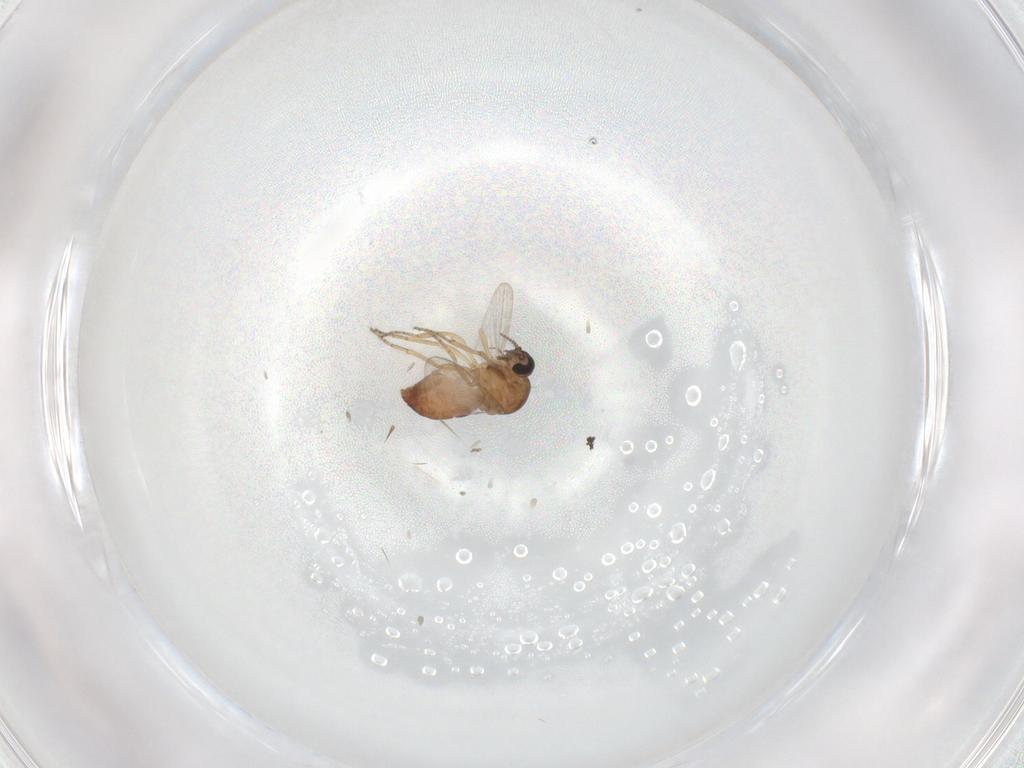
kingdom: Animalia
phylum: Arthropoda
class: Insecta
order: Diptera
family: Ceratopogonidae
